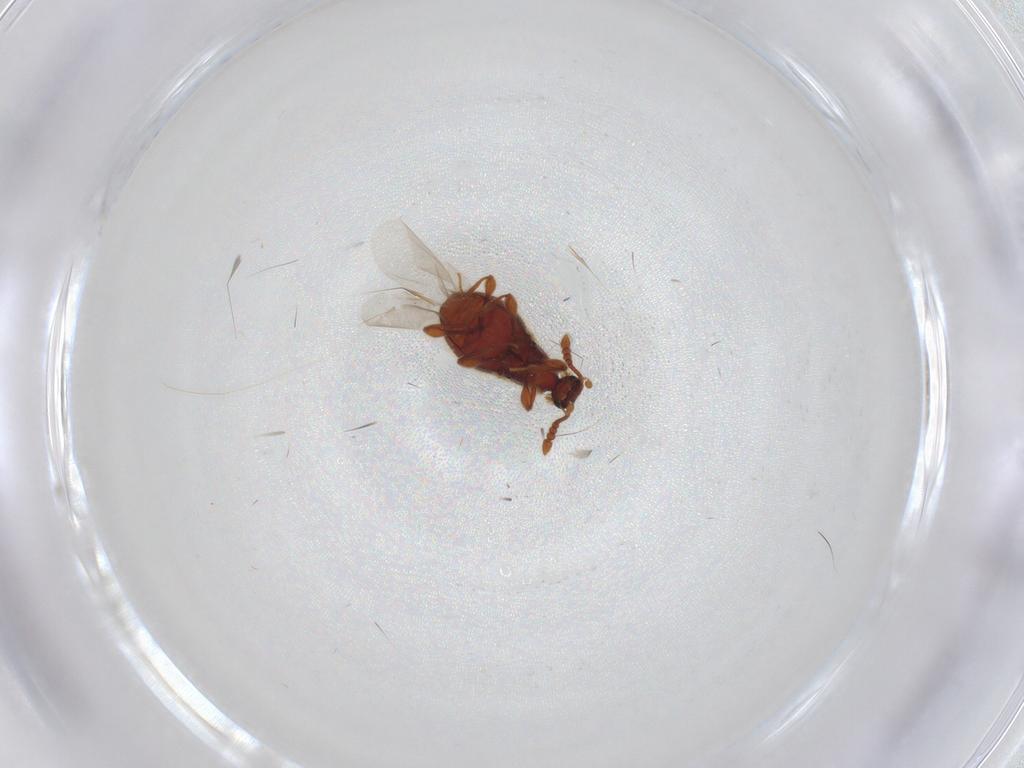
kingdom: Animalia
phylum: Arthropoda
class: Insecta
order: Coleoptera
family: Staphylinidae
